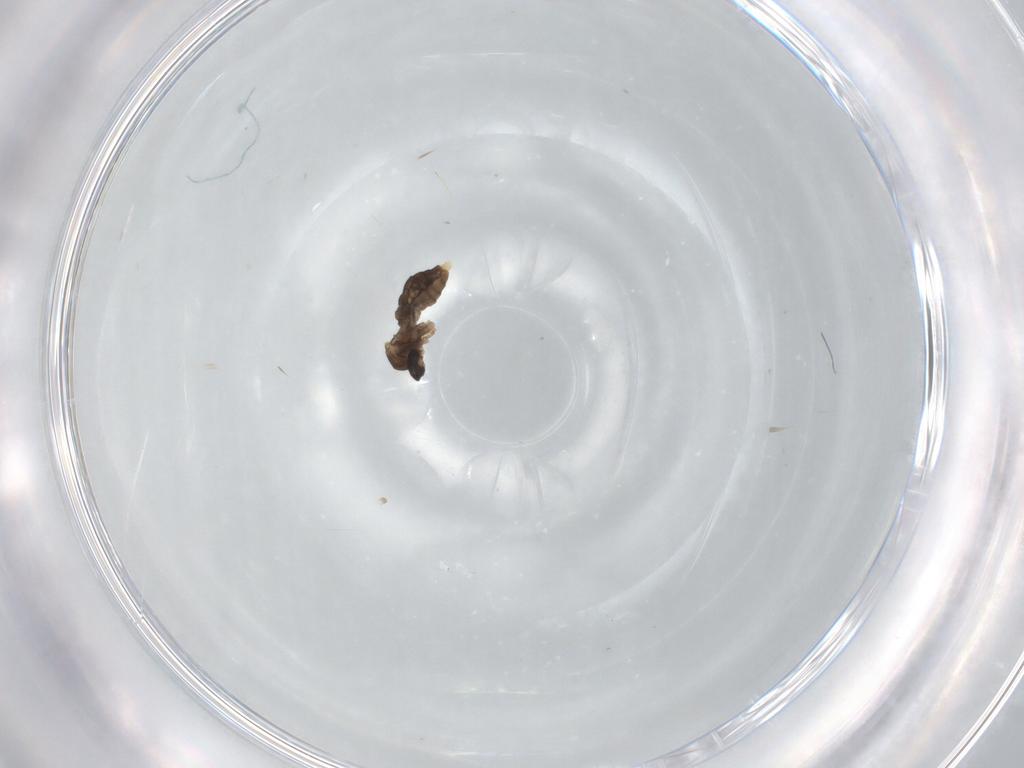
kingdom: Animalia
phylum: Arthropoda
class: Insecta
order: Diptera
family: Cecidomyiidae
